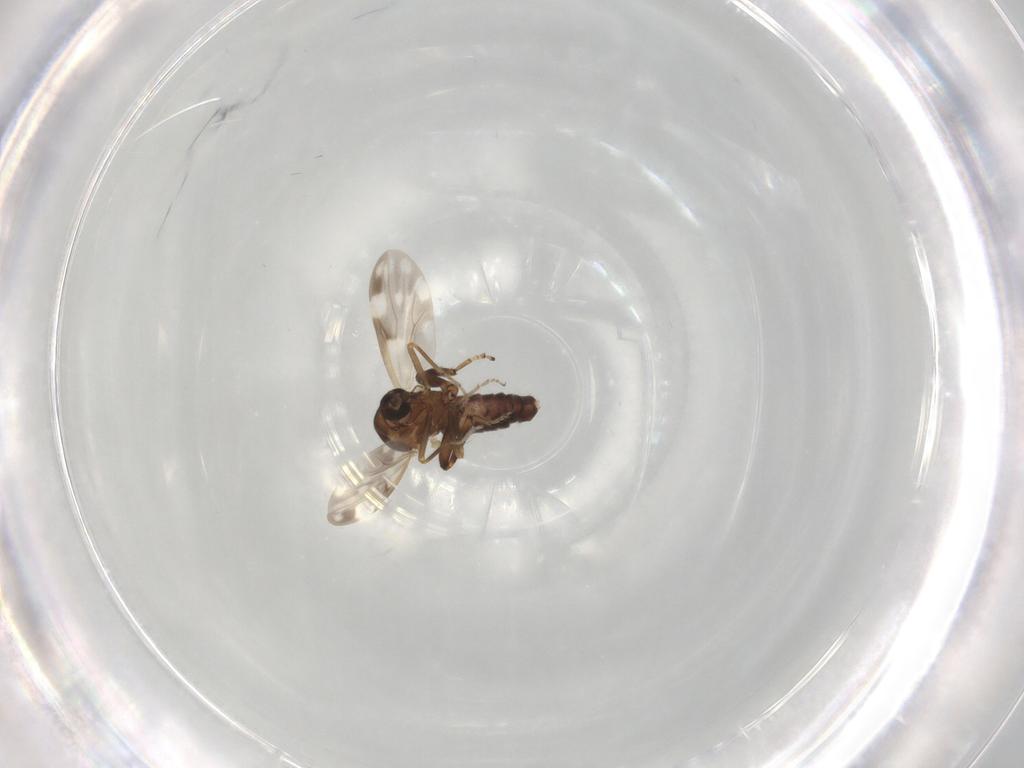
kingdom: Animalia
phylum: Arthropoda
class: Insecta
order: Diptera
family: Ceratopogonidae
